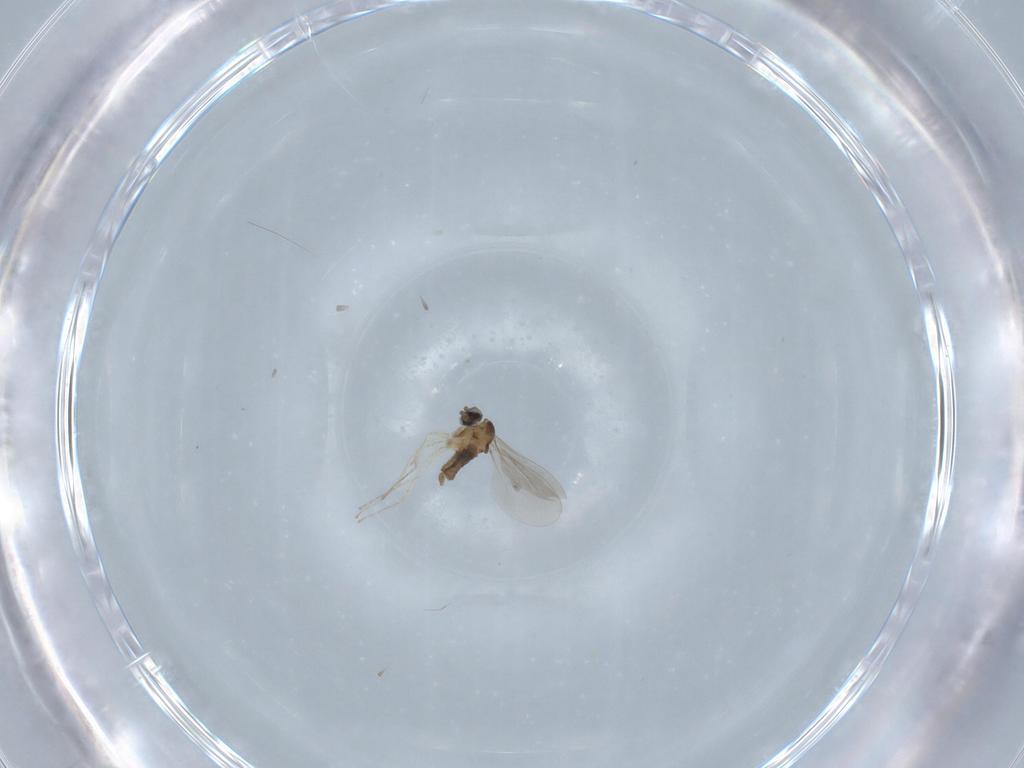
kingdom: Animalia
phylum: Arthropoda
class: Insecta
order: Diptera
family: Cecidomyiidae
